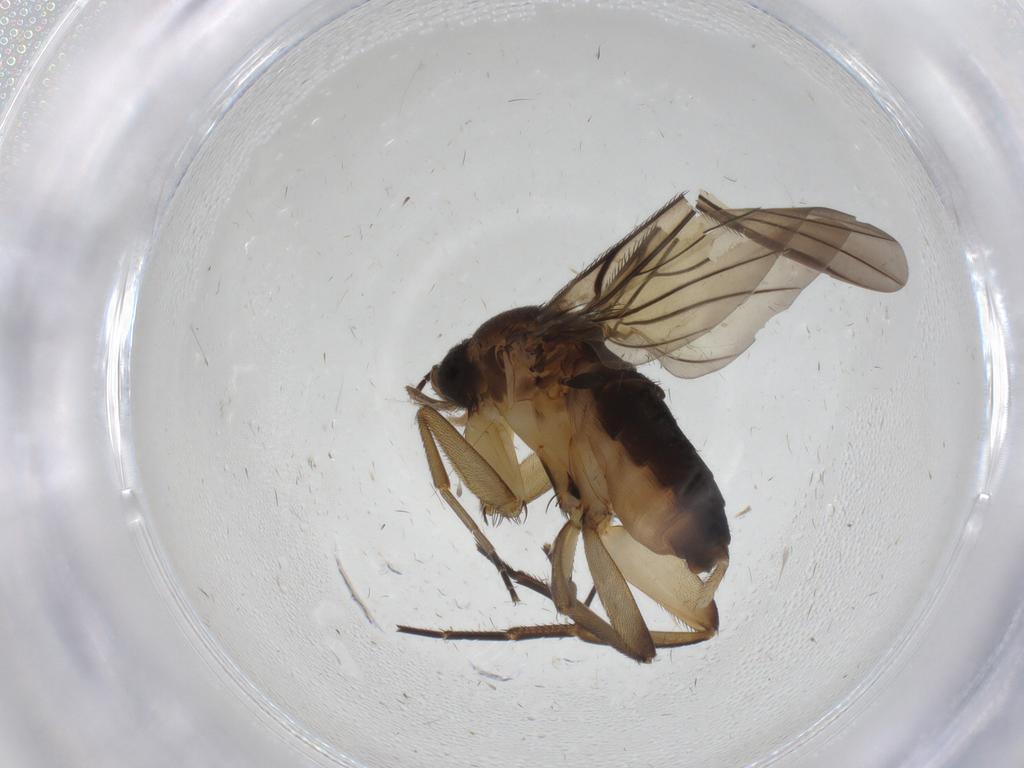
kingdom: Animalia
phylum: Arthropoda
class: Insecta
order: Diptera
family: Phoridae
